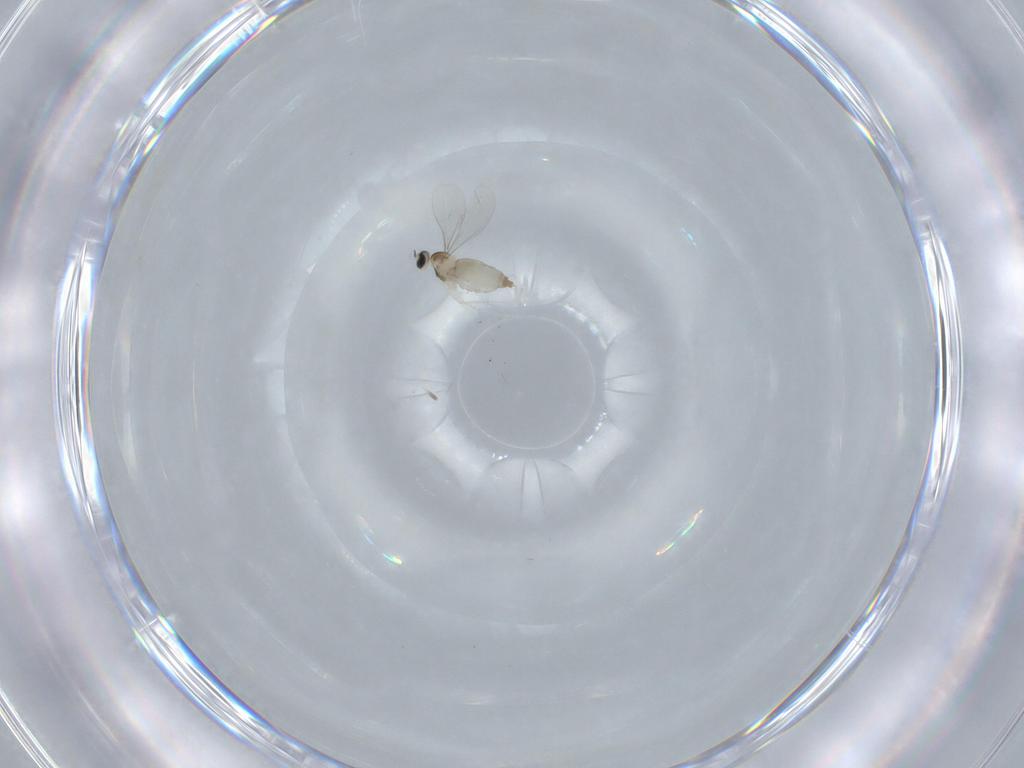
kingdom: Animalia
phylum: Arthropoda
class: Insecta
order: Diptera
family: Cecidomyiidae
